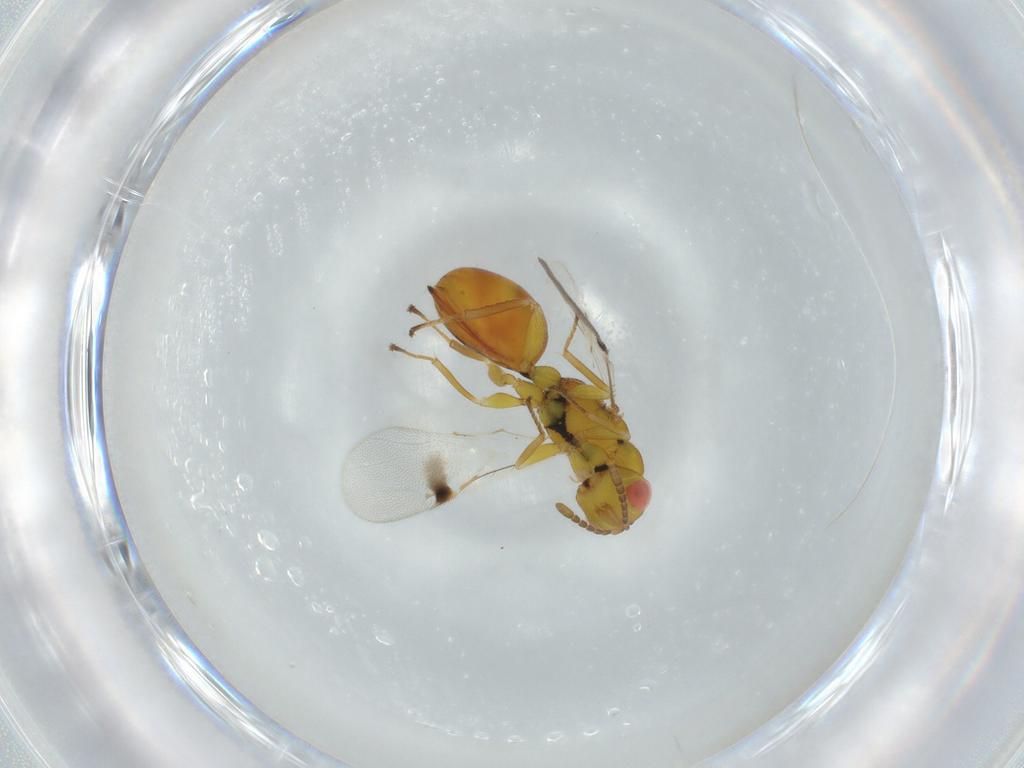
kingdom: Animalia
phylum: Arthropoda
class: Insecta
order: Hymenoptera
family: Eurytomidae
